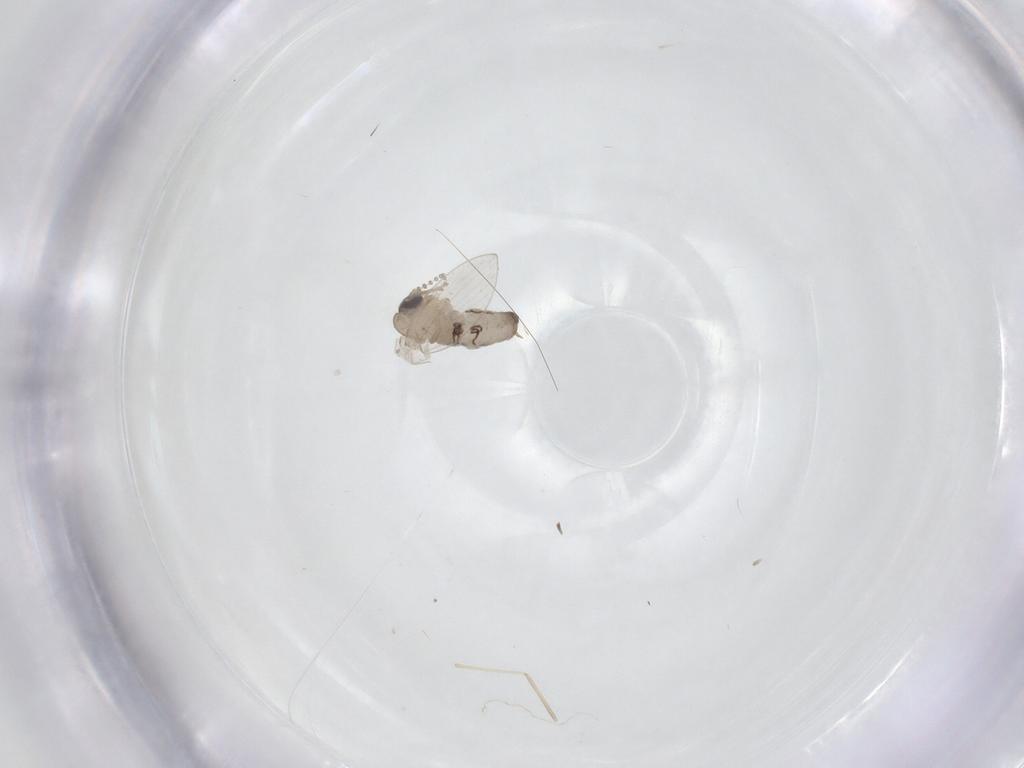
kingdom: Animalia
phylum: Arthropoda
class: Insecta
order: Diptera
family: Psychodidae
